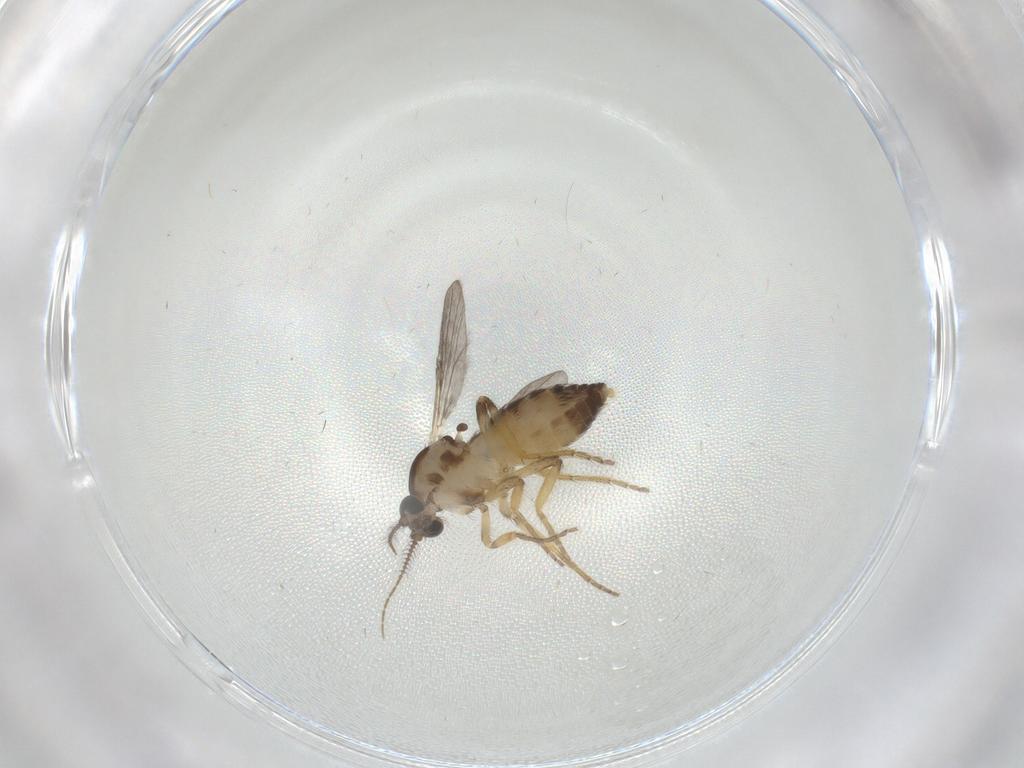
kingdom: Animalia
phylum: Arthropoda
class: Insecta
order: Diptera
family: Ceratopogonidae
